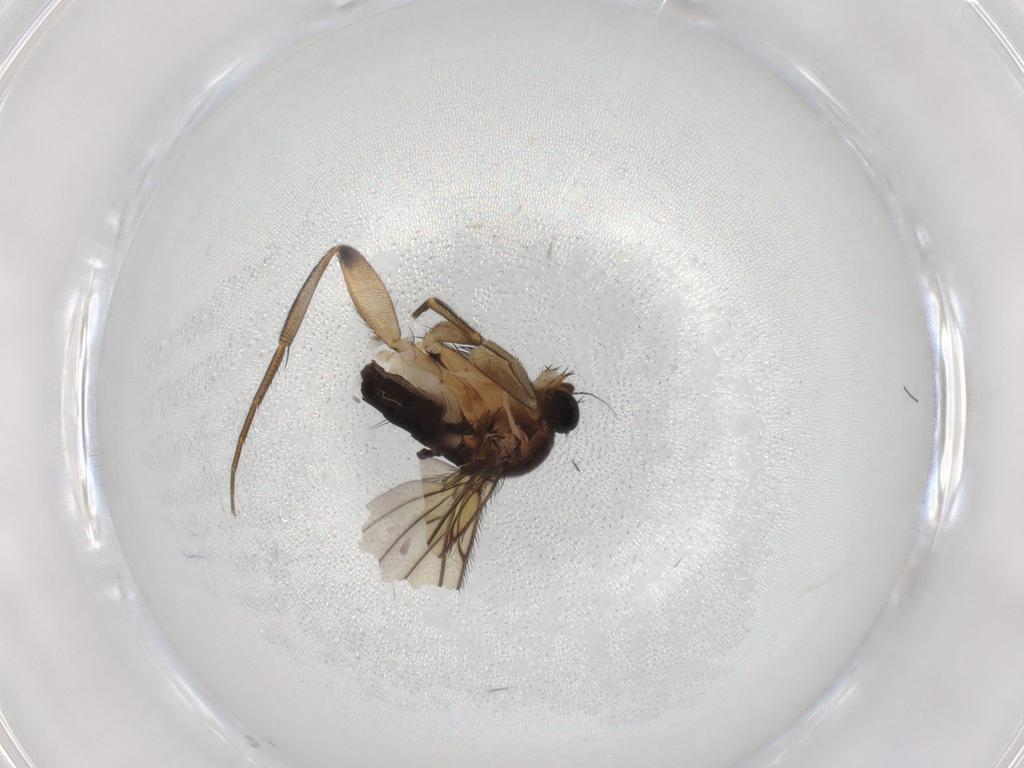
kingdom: Animalia
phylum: Arthropoda
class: Insecta
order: Diptera
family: Phoridae
